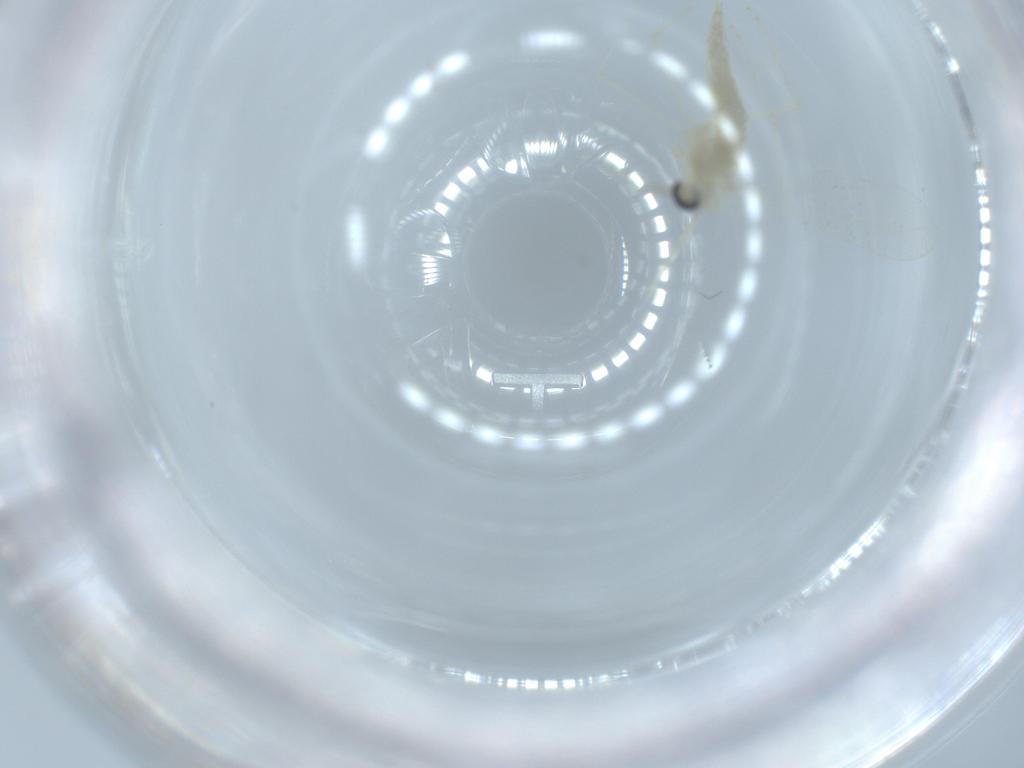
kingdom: Animalia
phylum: Arthropoda
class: Insecta
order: Diptera
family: Cecidomyiidae
